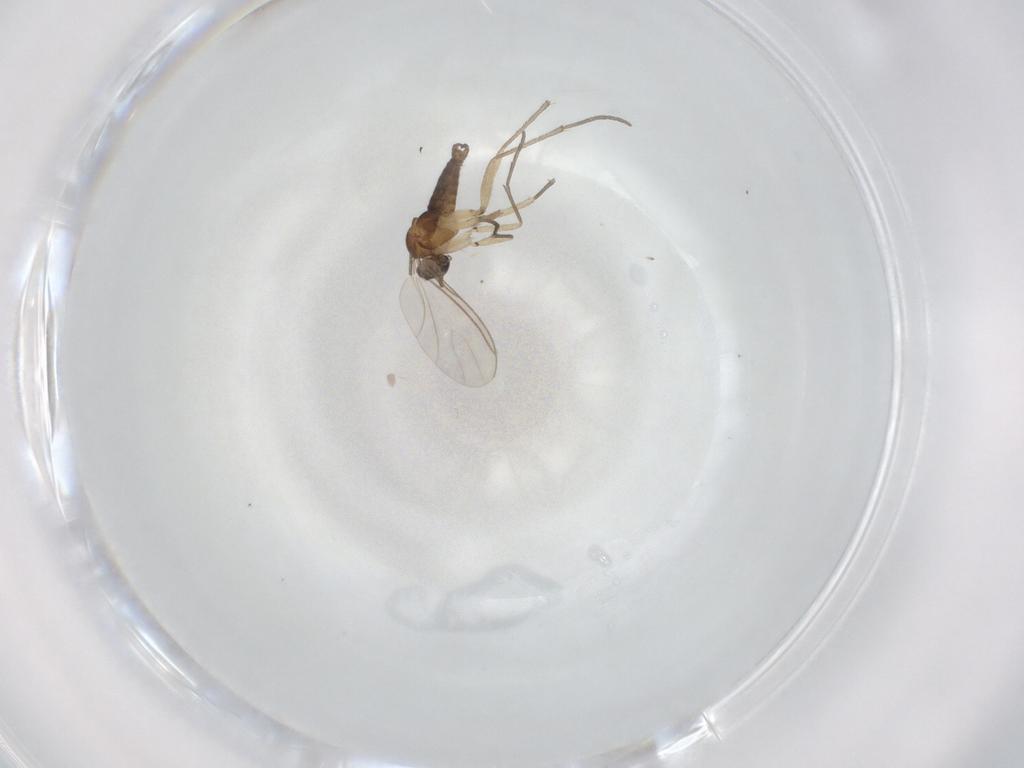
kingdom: Animalia
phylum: Arthropoda
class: Insecta
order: Diptera
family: Sciaridae
